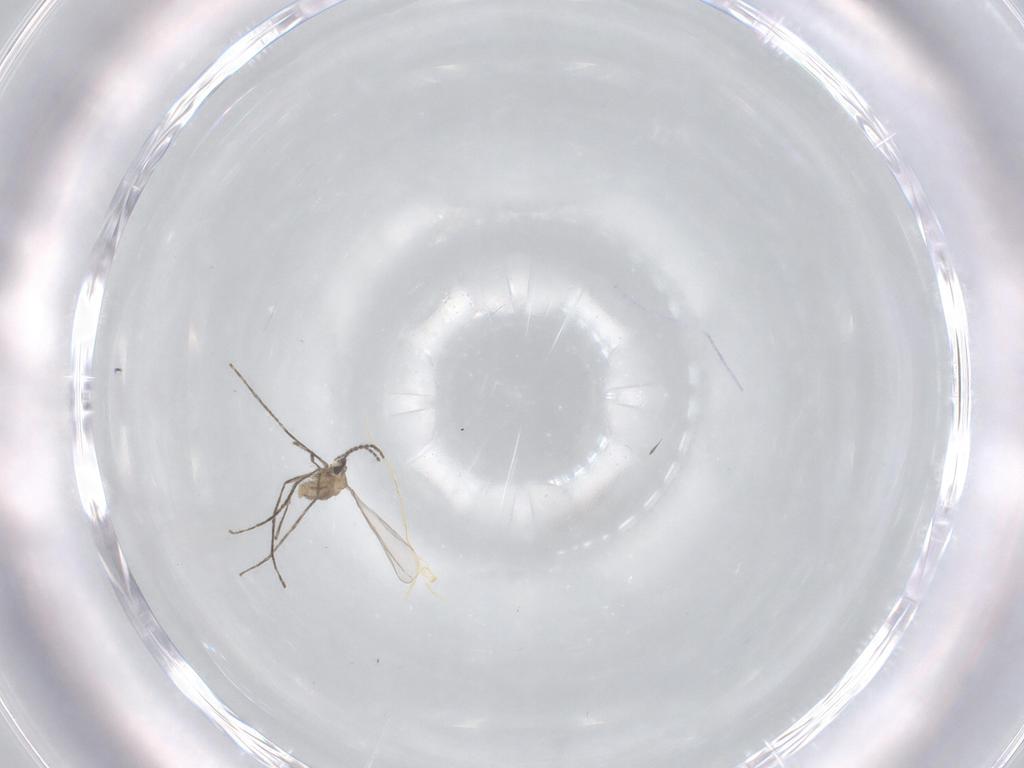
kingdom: Animalia
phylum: Arthropoda
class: Insecta
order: Diptera
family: Cecidomyiidae
